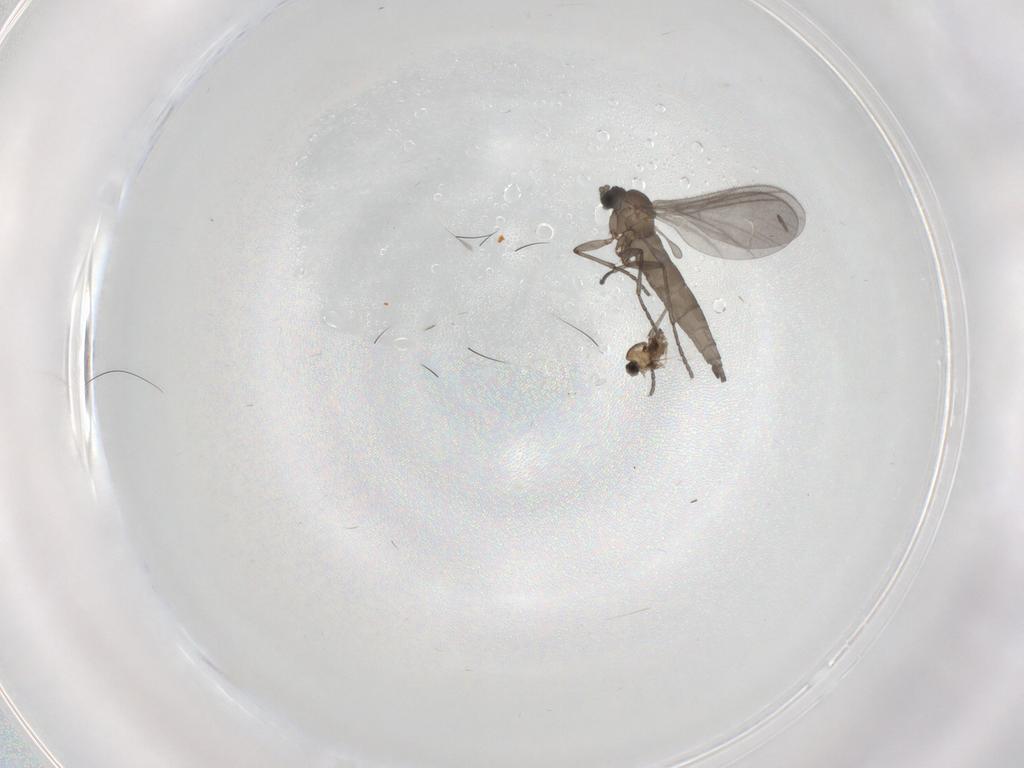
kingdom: Animalia
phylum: Arthropoda
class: Insecta
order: Diptera
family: Sciaridae
